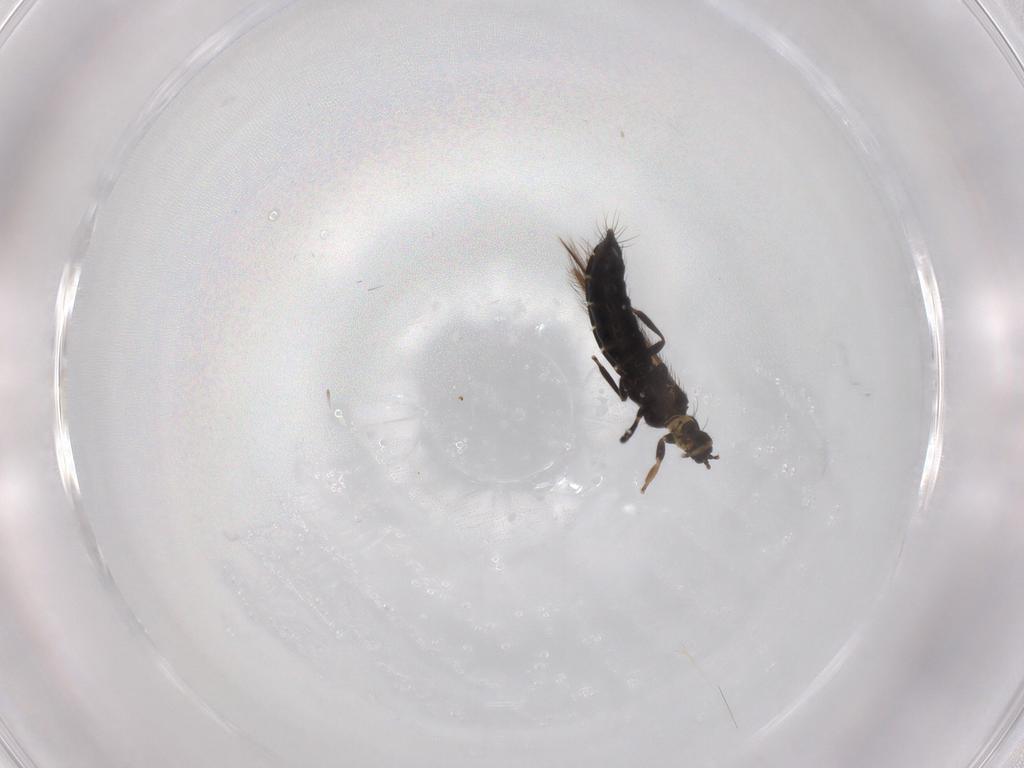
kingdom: Animalia
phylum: Arthropoda
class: Insecta
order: Thysanoptera
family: Thripidae
